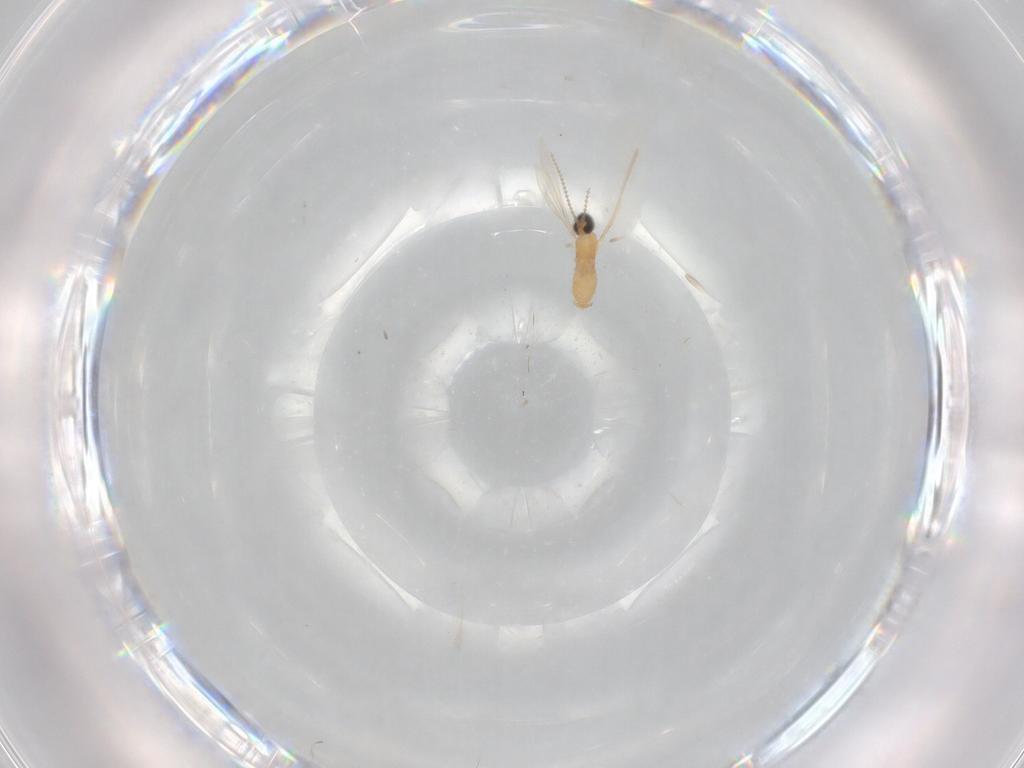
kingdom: Animalia
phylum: Arthropoda
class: Insecta
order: Diptera
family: Cecidomyiidae
